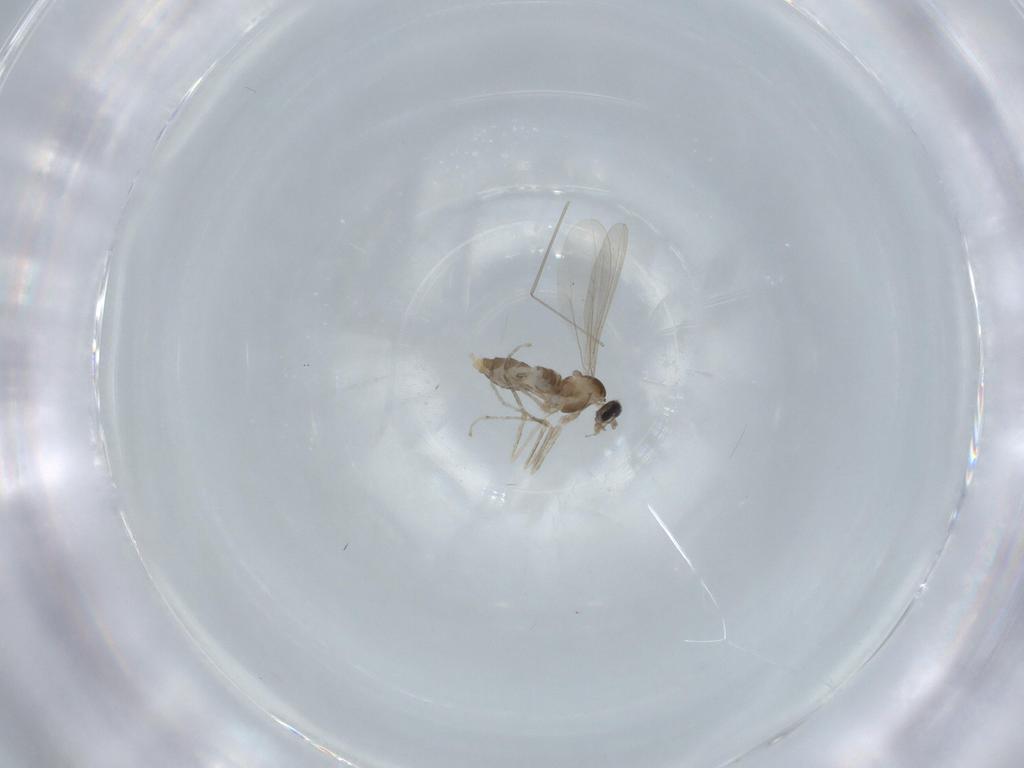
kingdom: Animalia
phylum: Arthropoda
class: Insecta
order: Diptera
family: Cecidomyiidae
